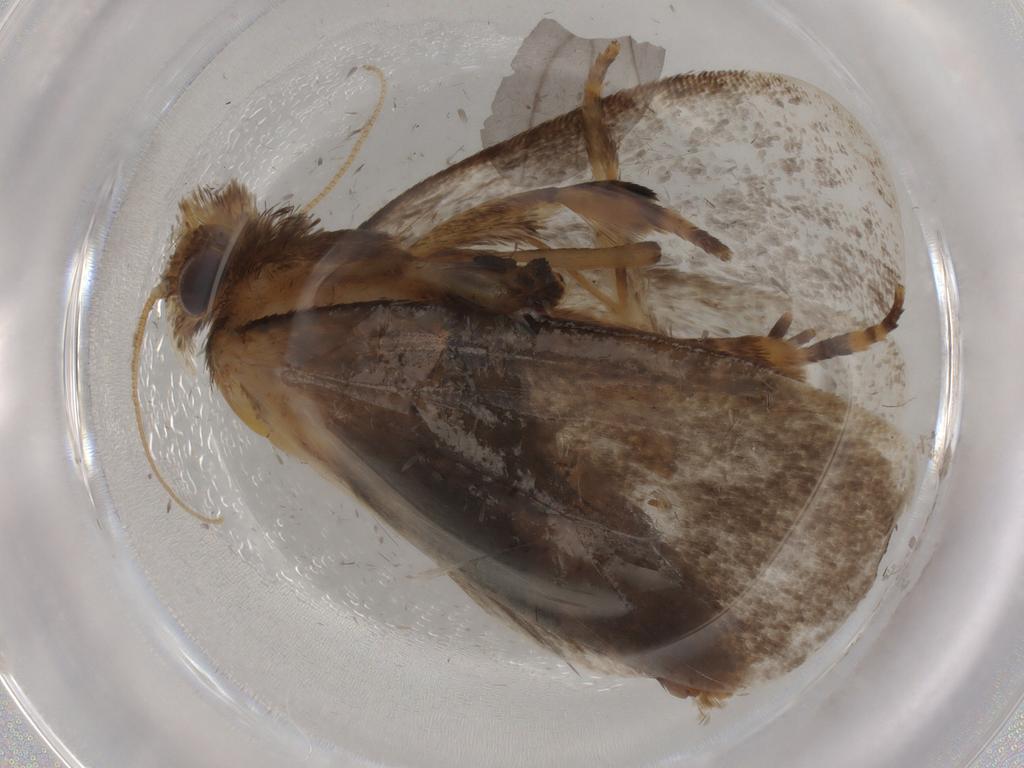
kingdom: Animalia
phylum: Arthropoda
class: Insecta
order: Lepidoptera
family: Tineidae
